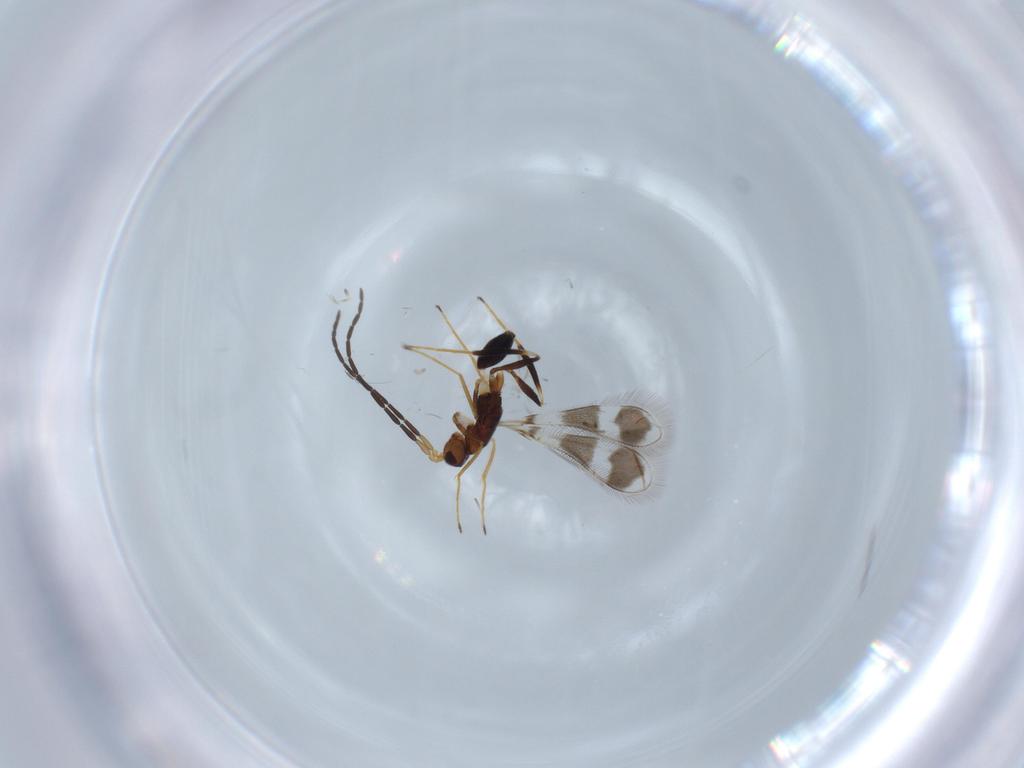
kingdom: Animalia
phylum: Arthropoda
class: Insecta
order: Hymenoptera
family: Mymaridae
